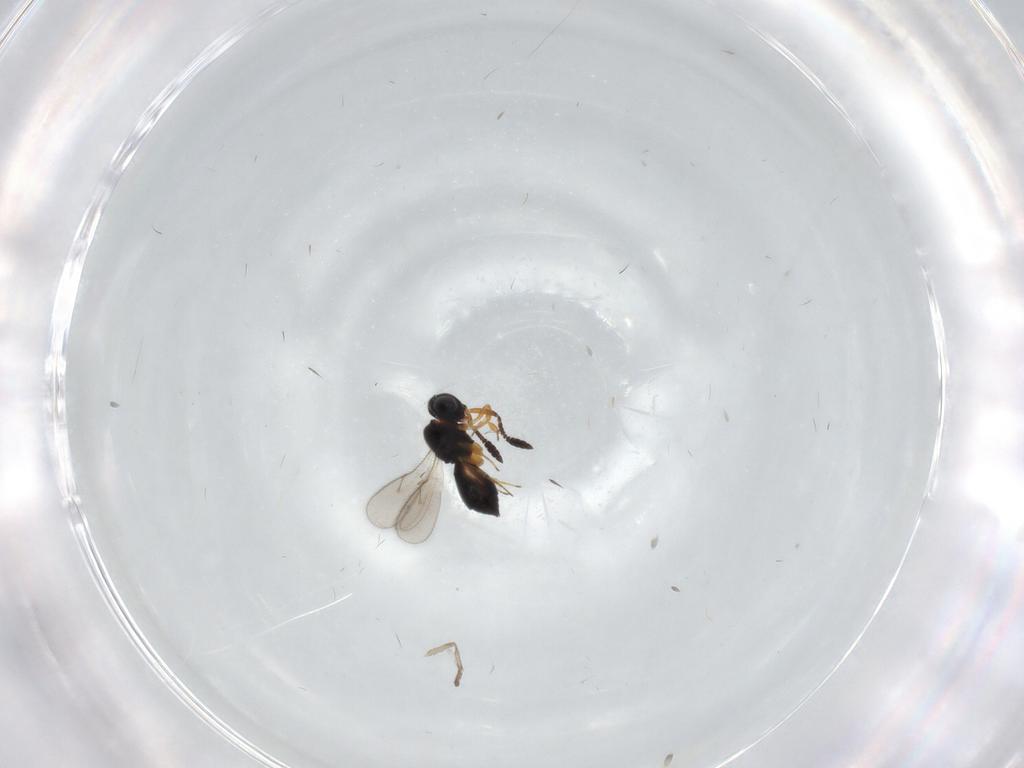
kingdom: Animalia
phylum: Arthropoda
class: Insecta
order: Hymenoptera
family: Scelionidae
